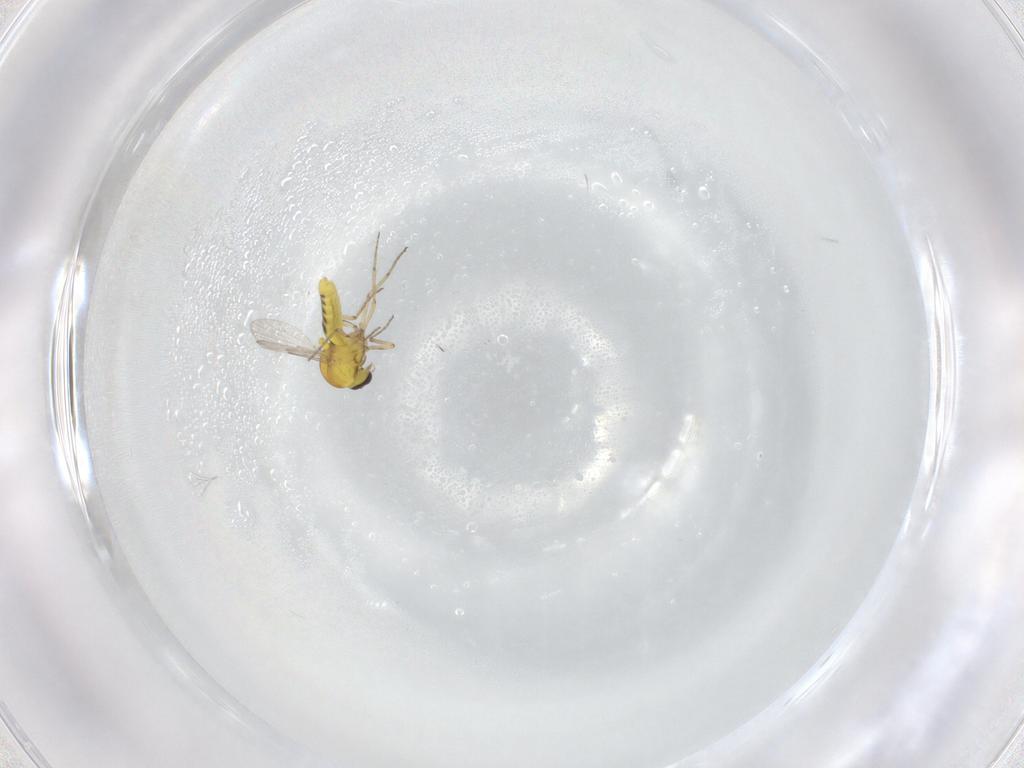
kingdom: Animalia
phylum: Arthropoda
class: Insecta
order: Diptera
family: Ceratopogonidae
